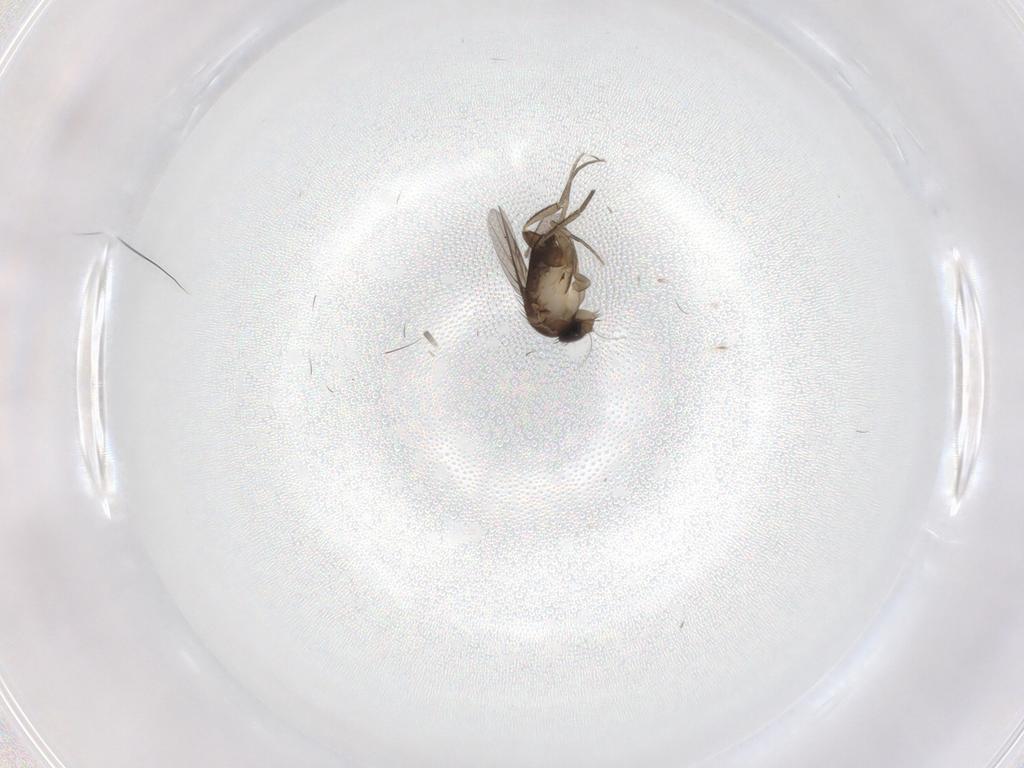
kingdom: Animalia
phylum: Arthropoda
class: Insecta
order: Diptera
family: Phoridae
